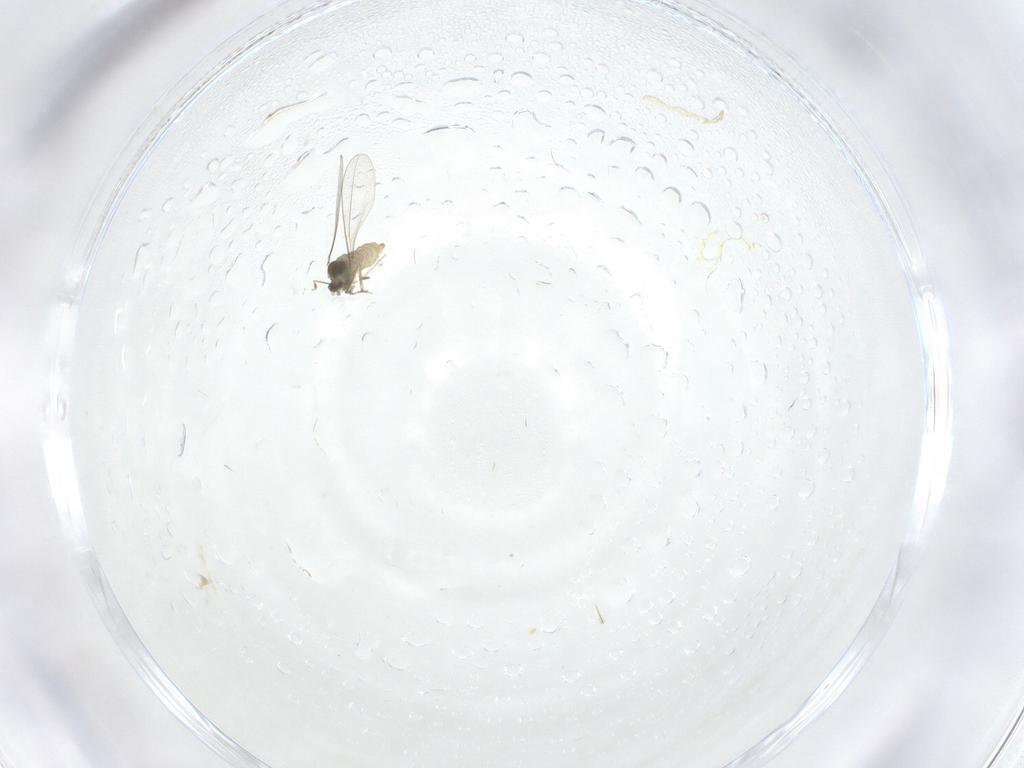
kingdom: Animalia
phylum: Arthropoda
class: Insecta
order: Diptera
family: Cecidomyiidae
